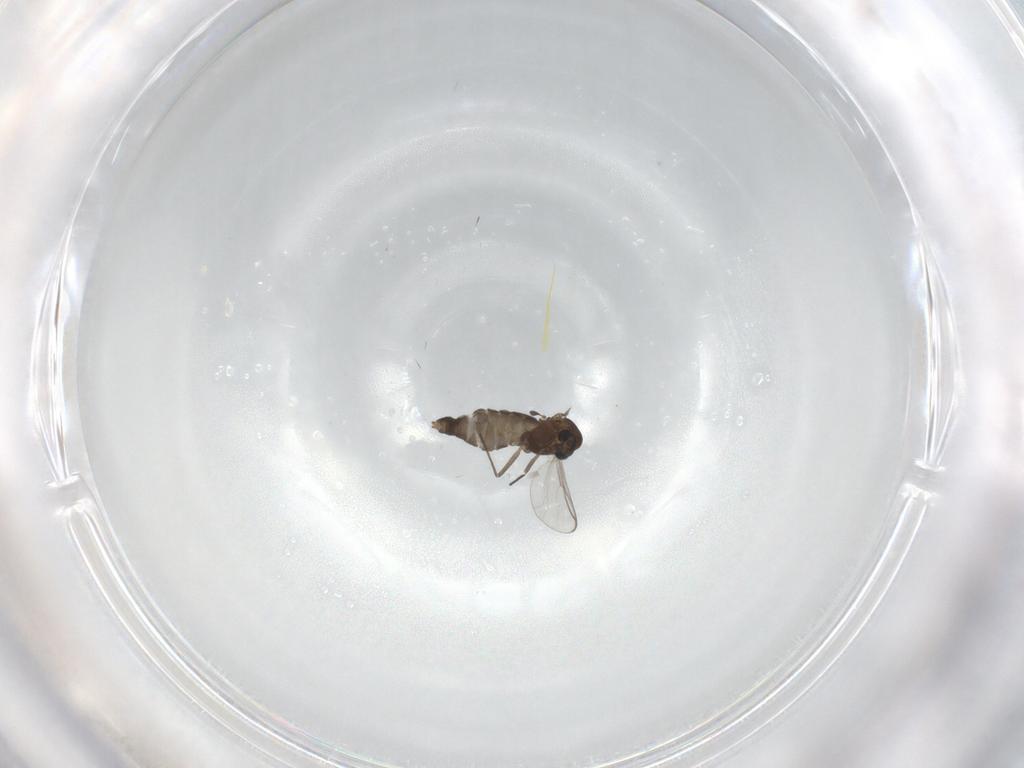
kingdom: Animalia
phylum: Arthropoda
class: Insecta
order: Diptera
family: Chironomidae
